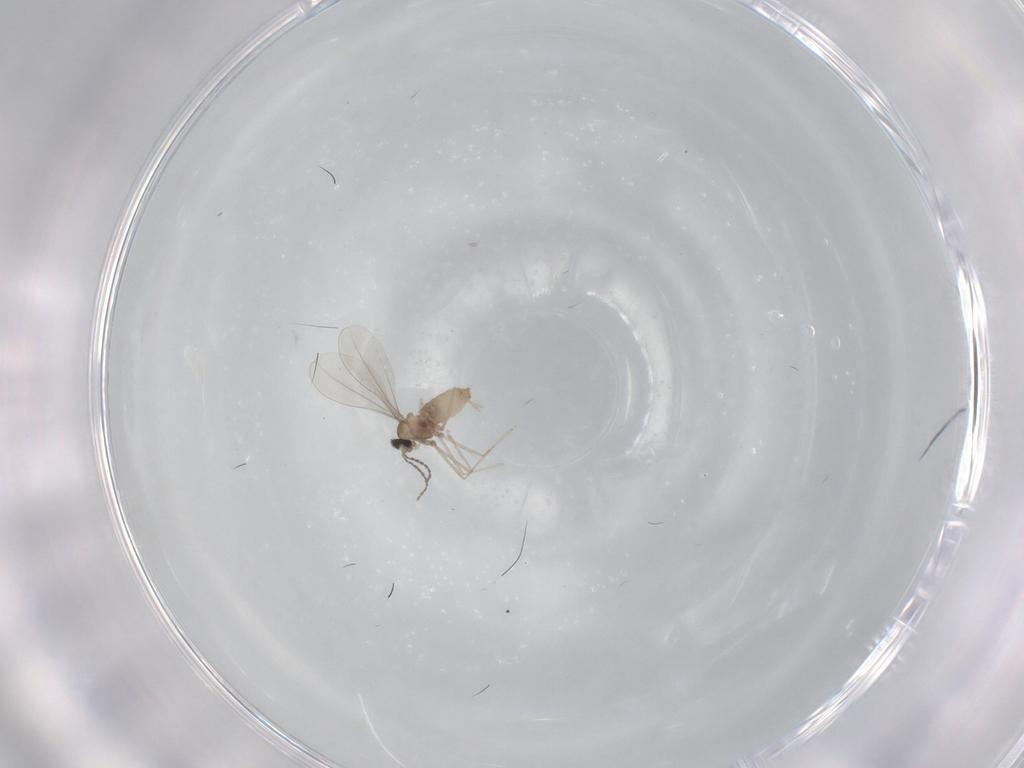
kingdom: Animalia
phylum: Arthropoda
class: Insecta
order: Diptera
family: Cecidomyiidae
